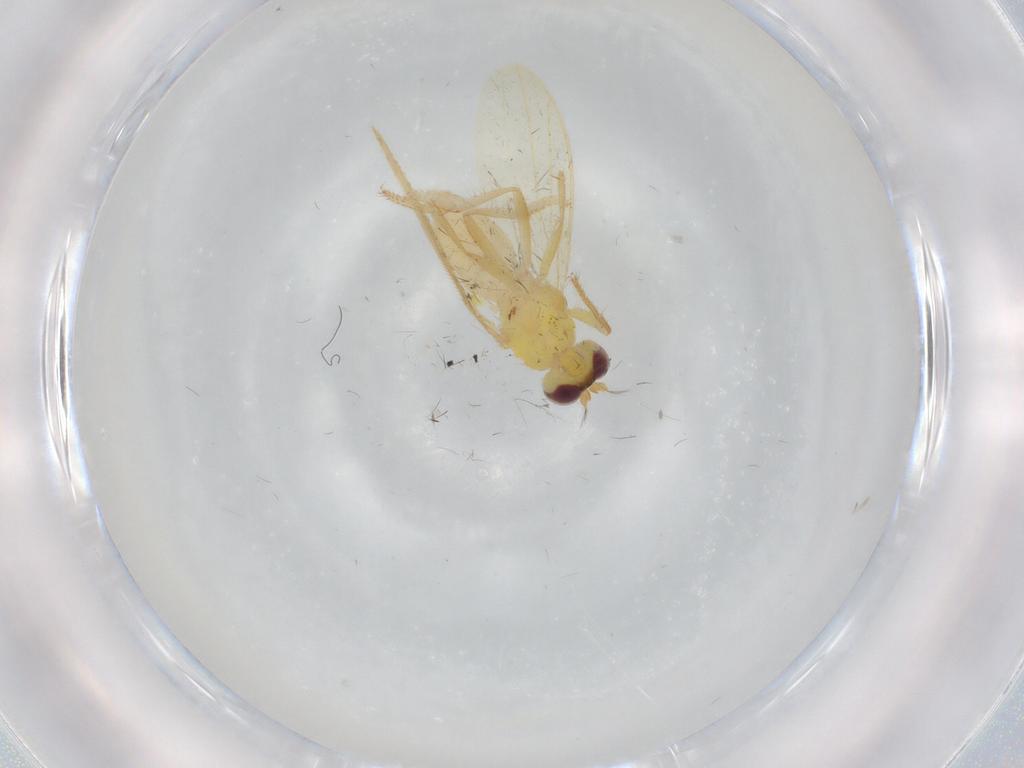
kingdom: Animalia
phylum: Arthropoda
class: Insecta
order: Diptera
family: Periscelididae
